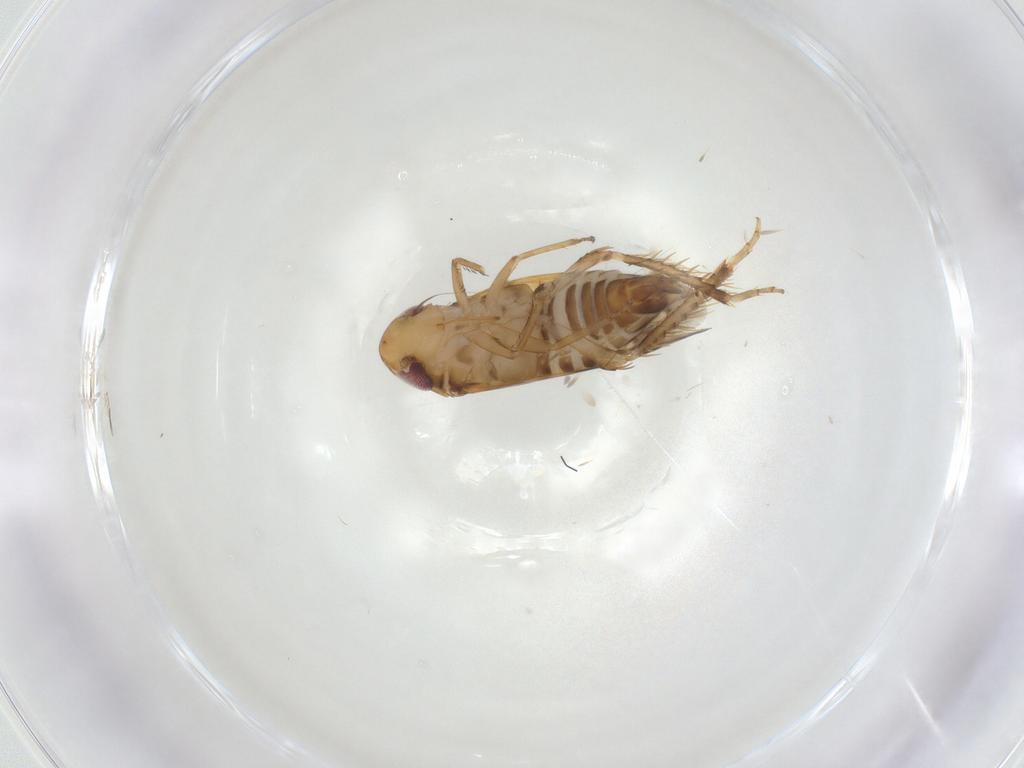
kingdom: Animalia
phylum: Arthropoda
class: Insecta
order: Hemiptera
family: Cicadellidae
